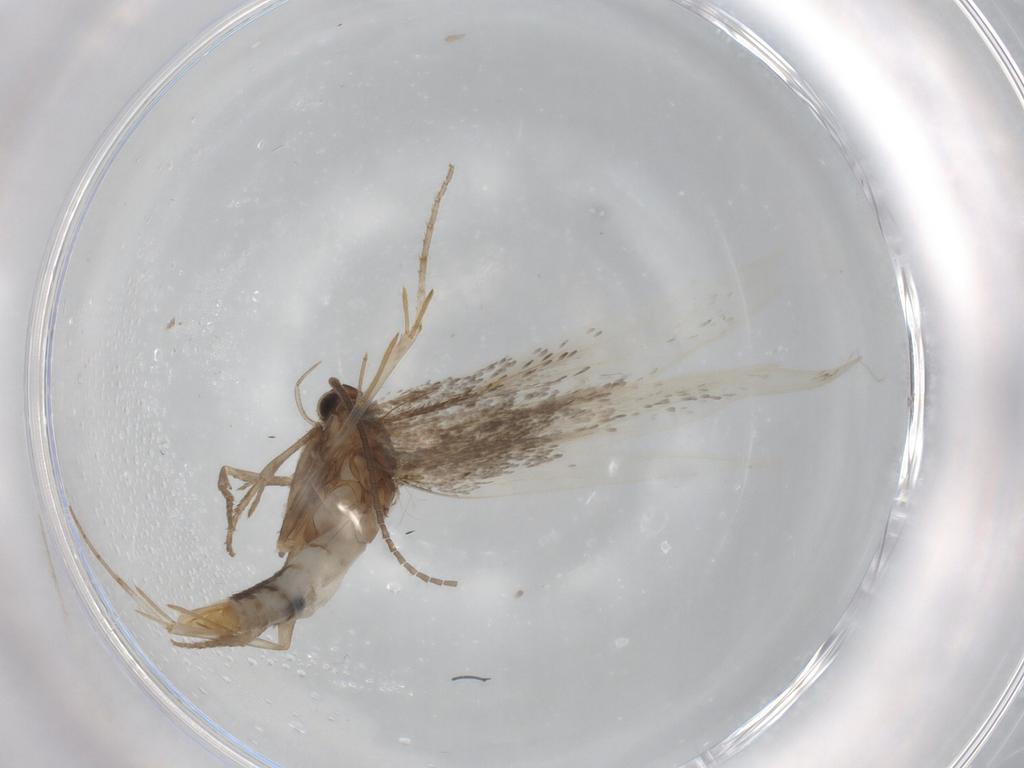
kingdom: Animalia
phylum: Arthropoda
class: Insecta
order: Lepidoptera
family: Elachistidae
